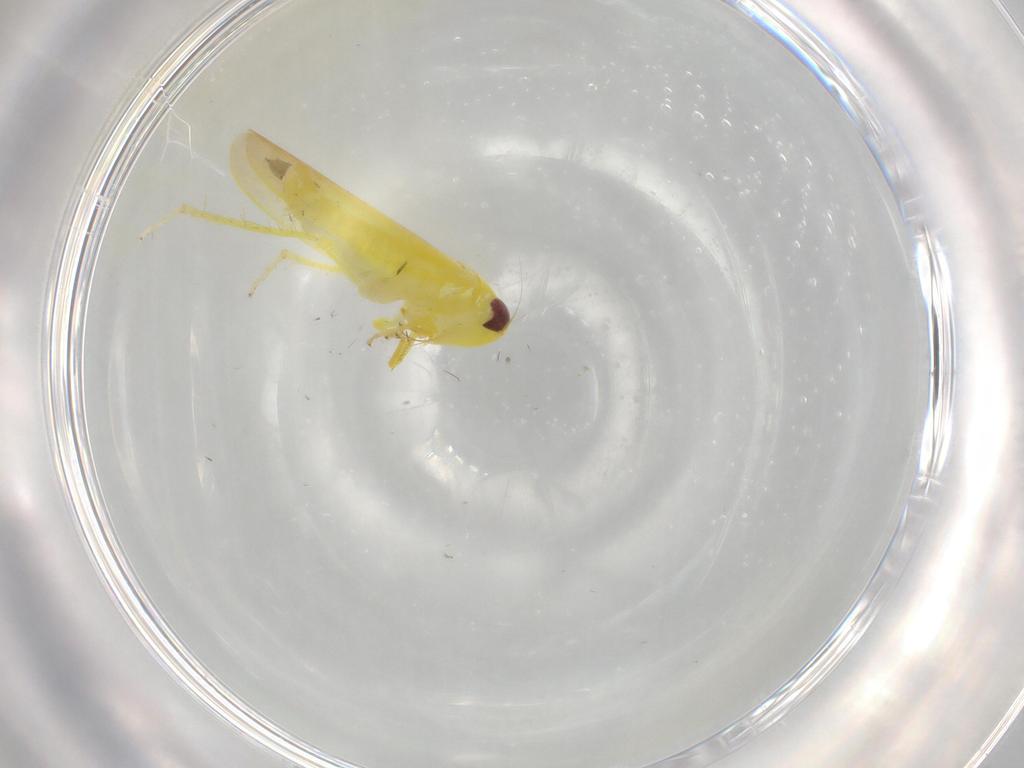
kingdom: Animalia
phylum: Arthropoda
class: Insecta
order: Hemiptera
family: Cicadellidae
